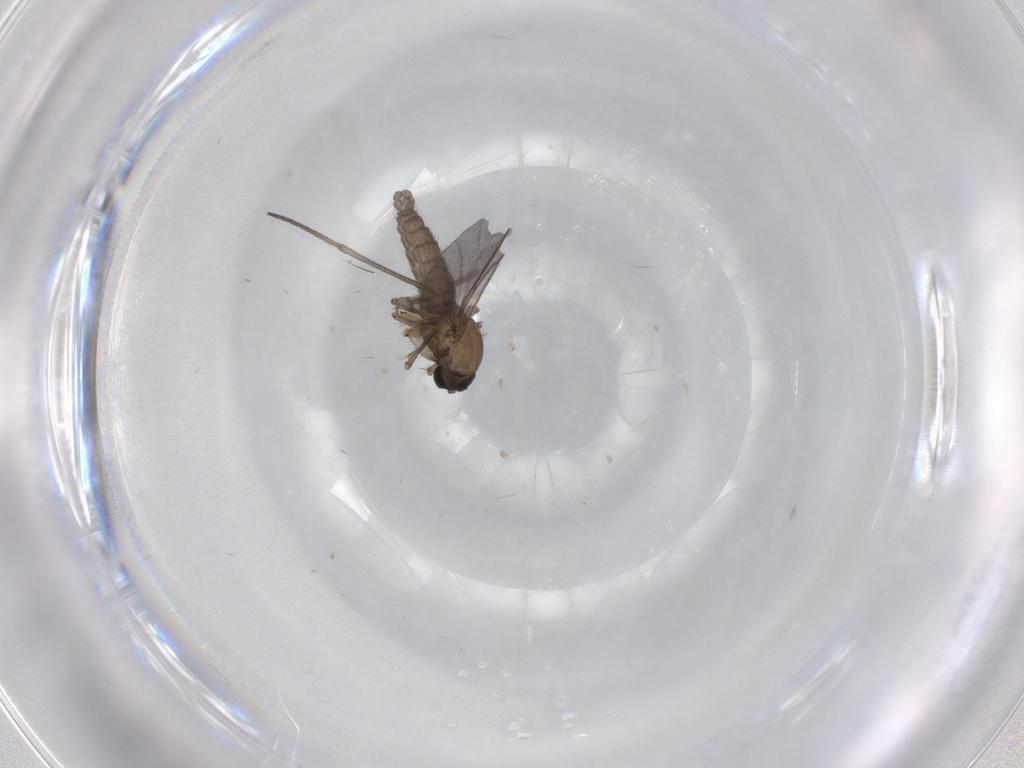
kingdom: Animalia
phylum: Arthropoda
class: Insecta
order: Diptera
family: Sciaridae
